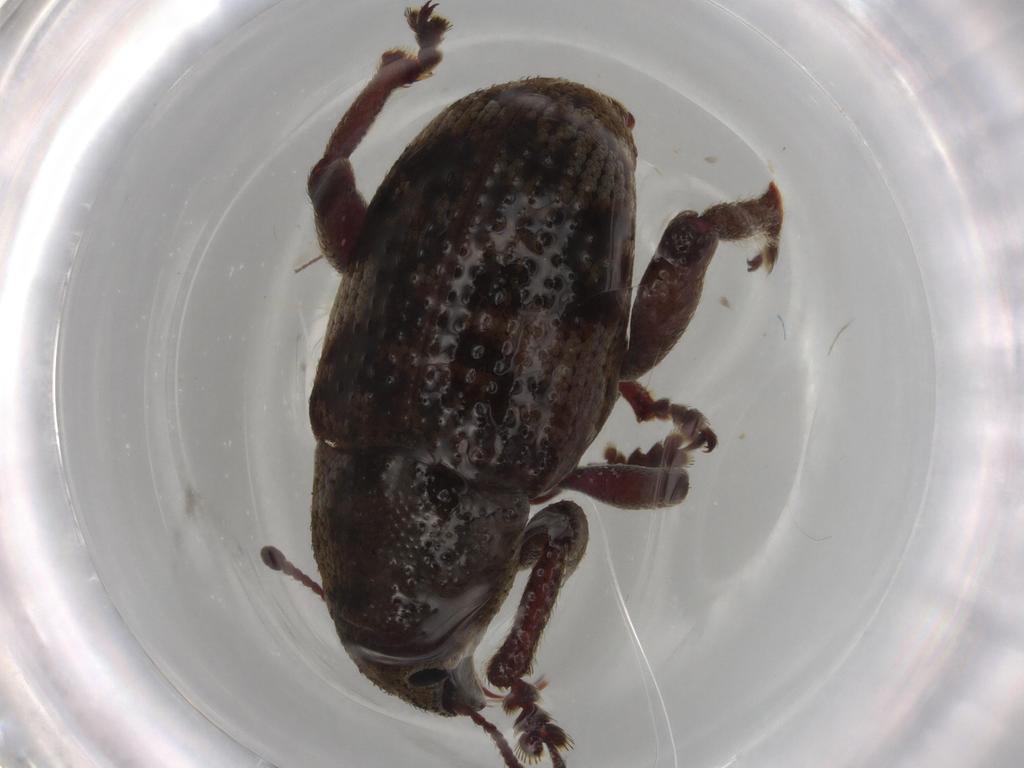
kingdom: Animalia
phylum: Arthropoda
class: Insecta
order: Coleoptera
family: Curculionidae
